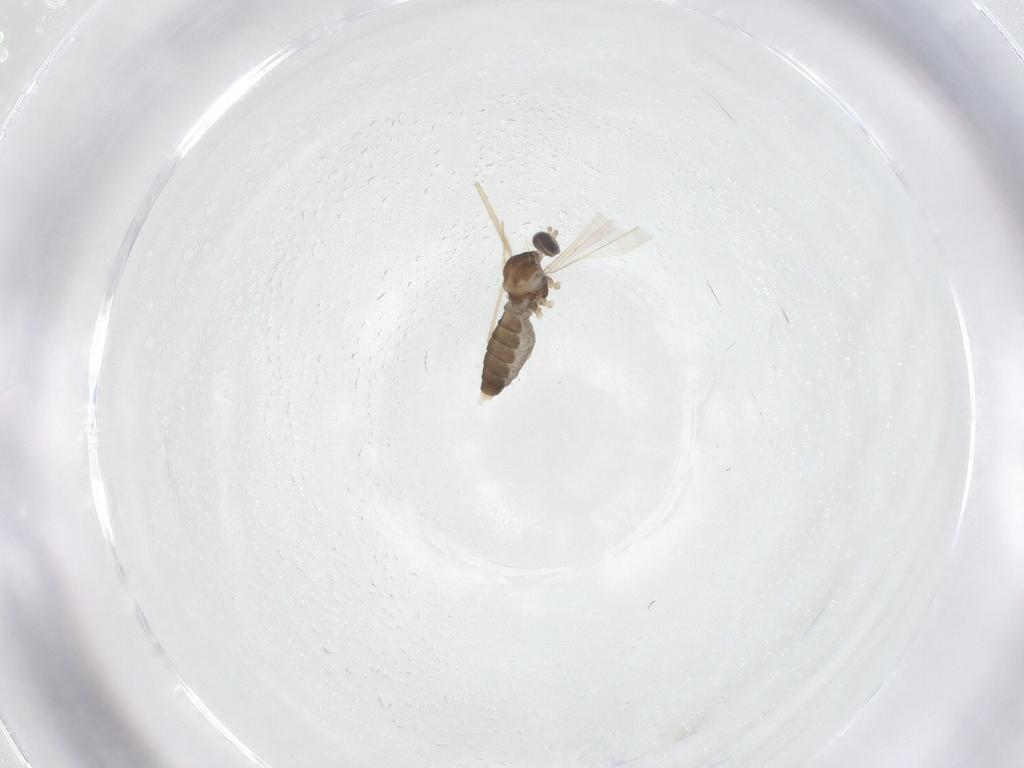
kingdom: Animalia
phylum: Arthropoda
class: Insecta
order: Diptera
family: Cecidomyiidae
